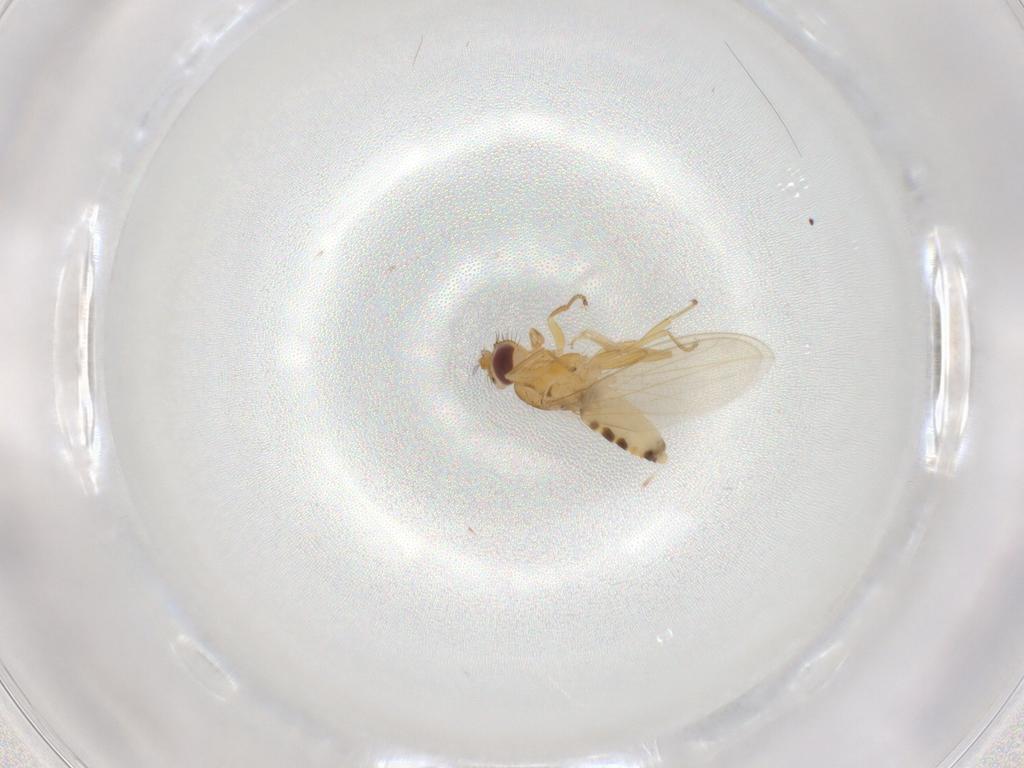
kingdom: Animalia
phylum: Arthropoda
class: Insecta
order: Diptera
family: Periscelididae
